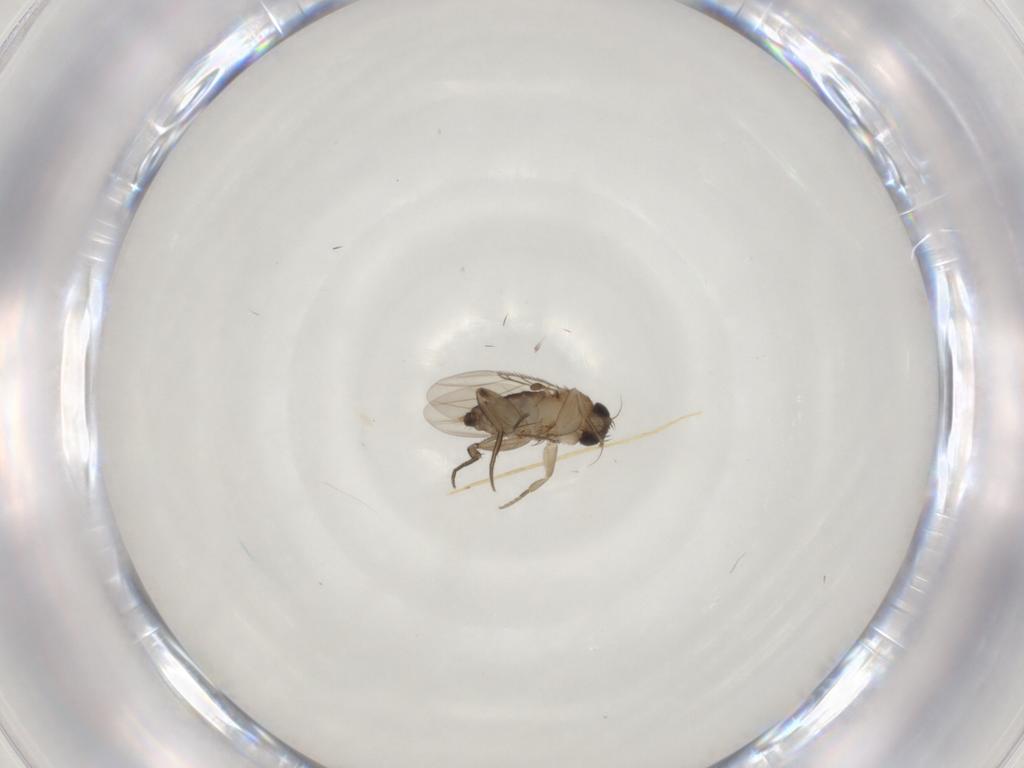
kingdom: Animalia
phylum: Arthropoda
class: Insecta
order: Diptera
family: Phoridae
